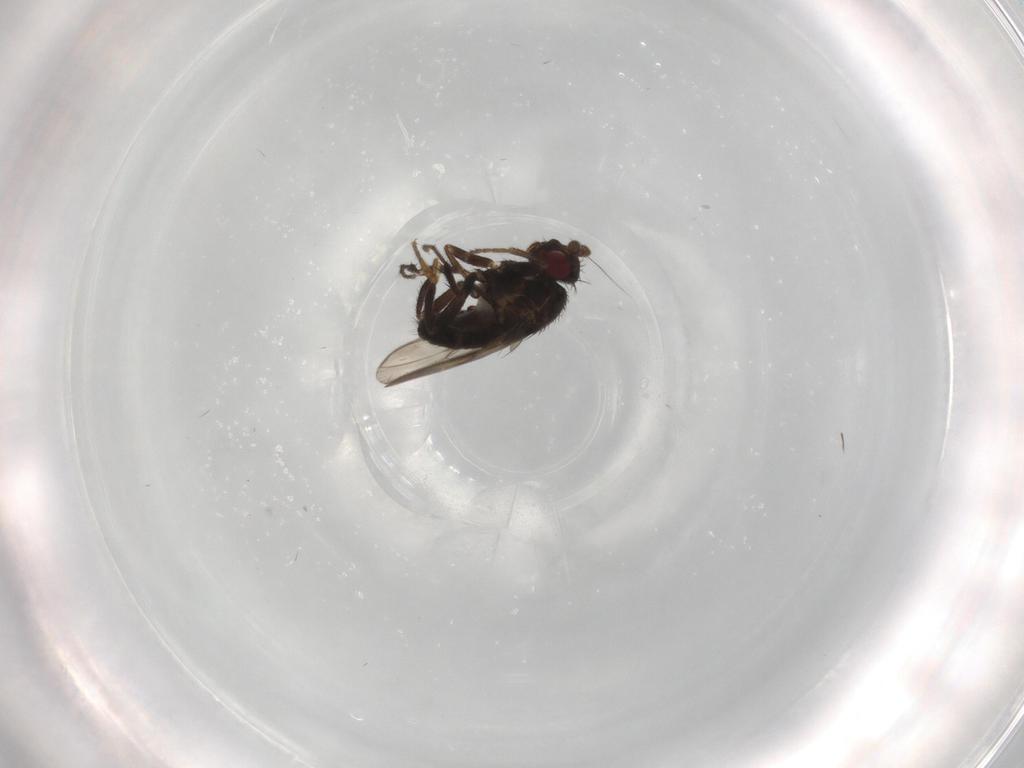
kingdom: Animalia
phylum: Arthropoda
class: Insecta
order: Diptera
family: Sphaeroceridae
